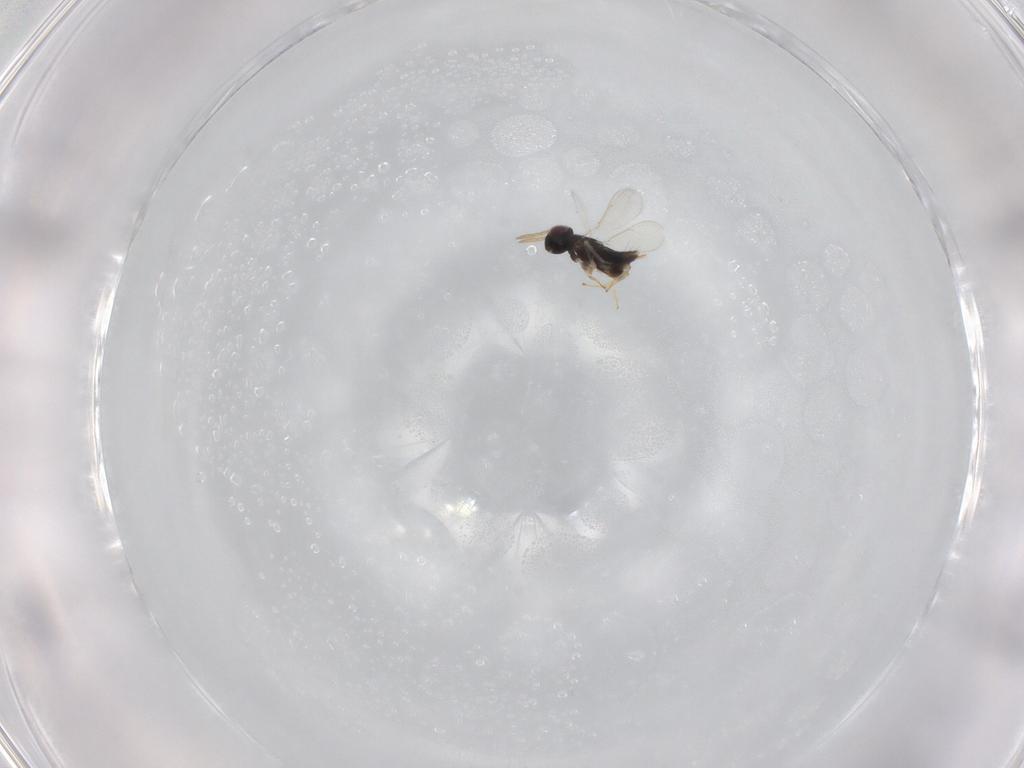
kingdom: Animalia
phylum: Arthropoda
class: Insecta
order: Hymenoptera
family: Aphelinidae
